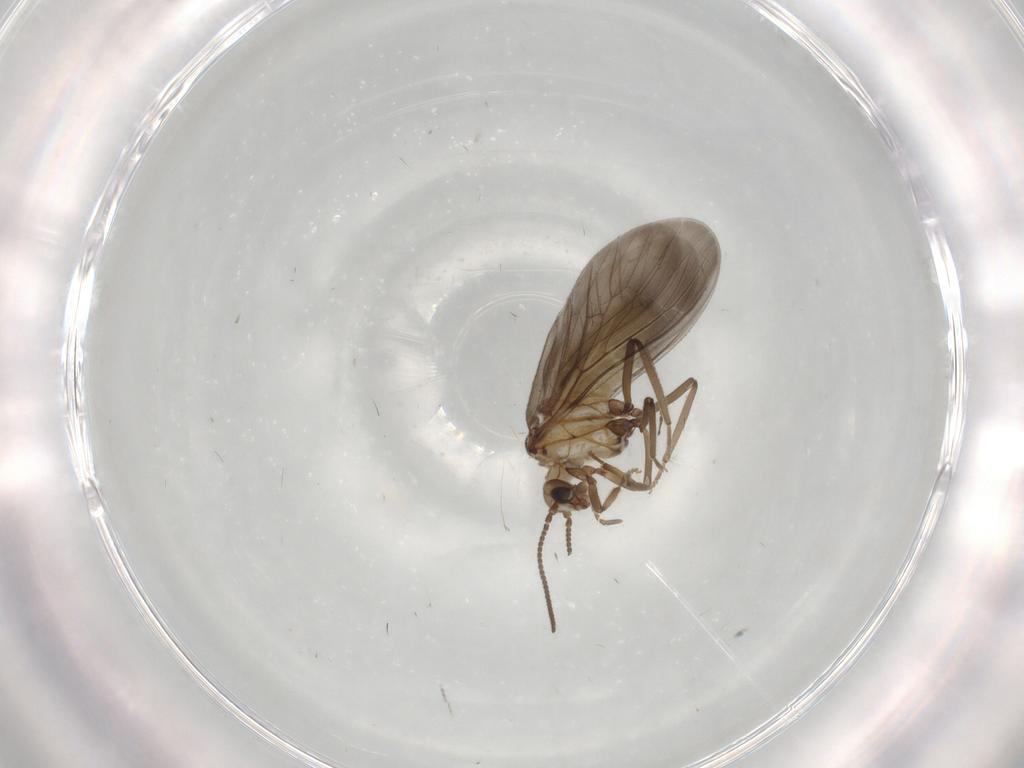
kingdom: Animalia
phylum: Arthropoda
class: Insecta
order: Neuroptera
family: Coniopterygidae
